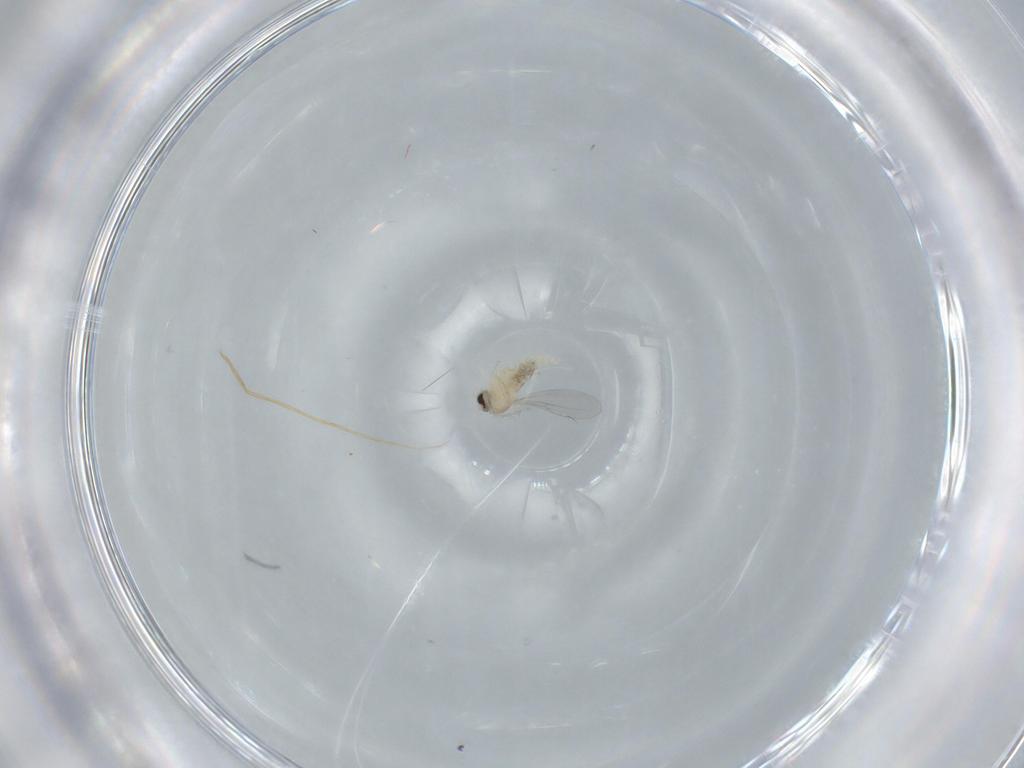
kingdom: Animalia
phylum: Arthropoda
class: Insecta
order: Diptera
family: Cecidomyiidae
